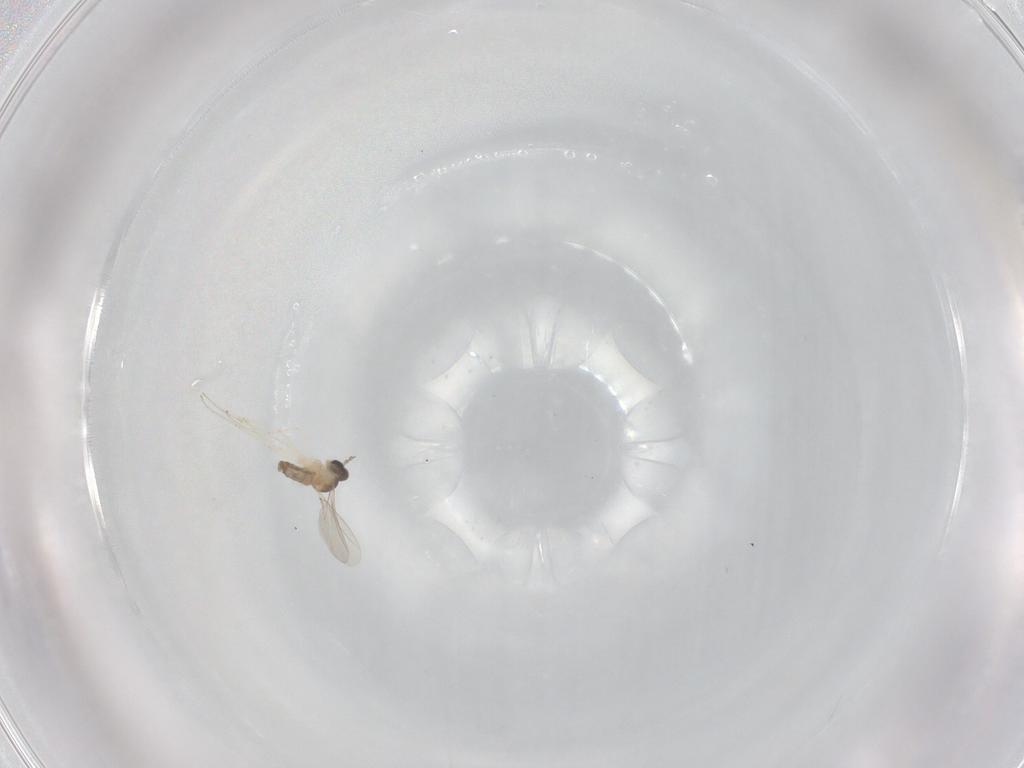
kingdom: Animalia
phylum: Arthropoda
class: Insecta
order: Diptera
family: Cecidomyiidae
